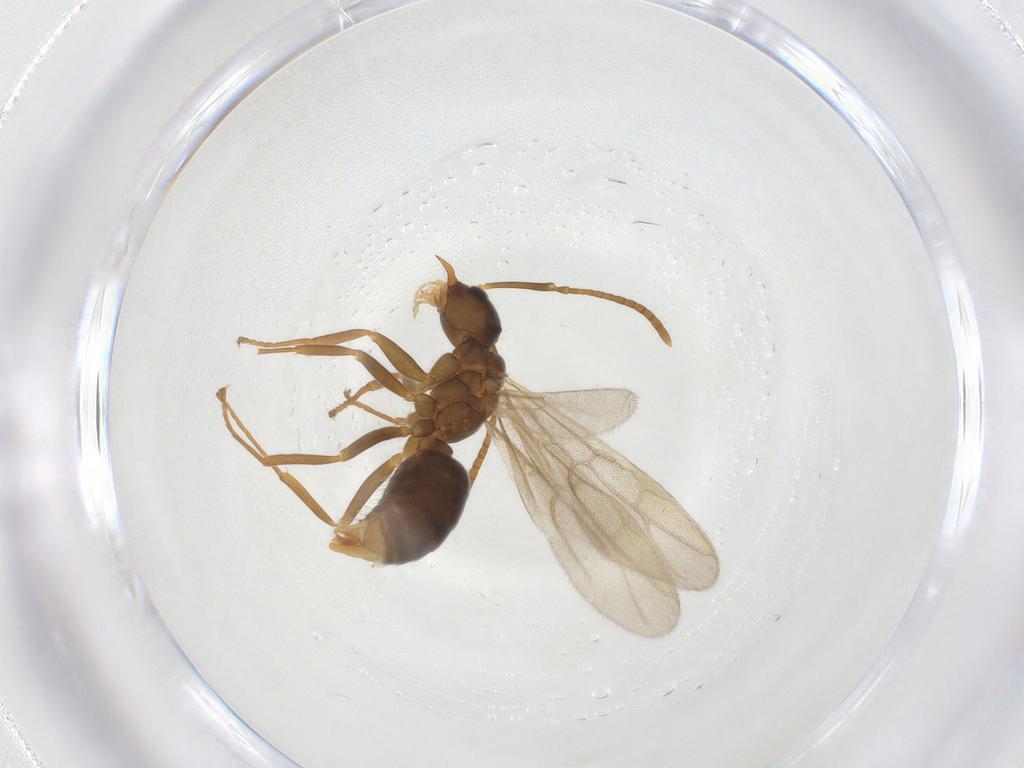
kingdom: Animalia
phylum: Arthropoda
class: Insecta
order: Hymenoptera
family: Formicidae
